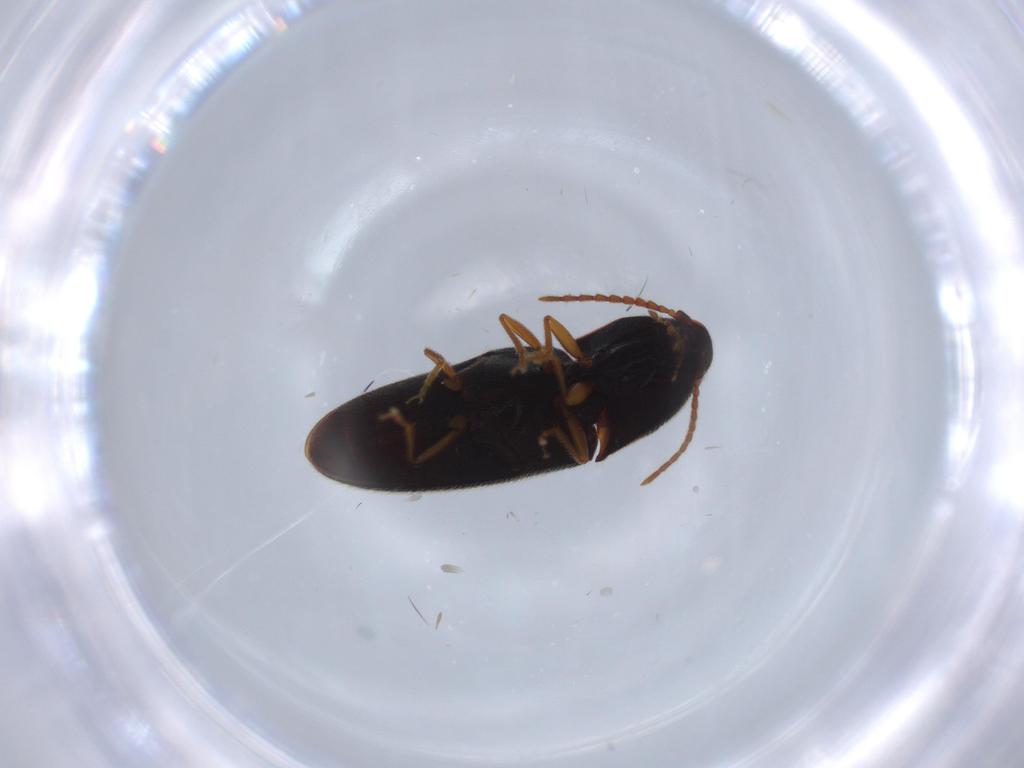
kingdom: Animalia
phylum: Arthropoda
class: Insecta
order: Coleoptera
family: Elateridae
